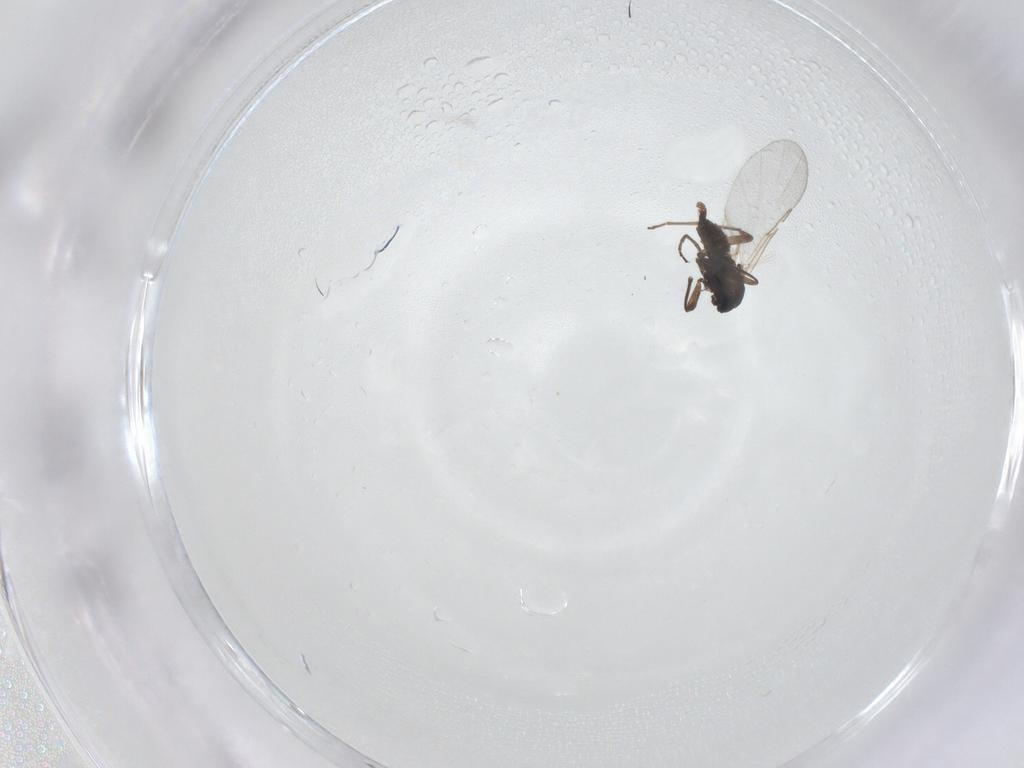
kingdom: Animalia
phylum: Arthropoda
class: Insecta
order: Diptera
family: Cecidomyiidae
